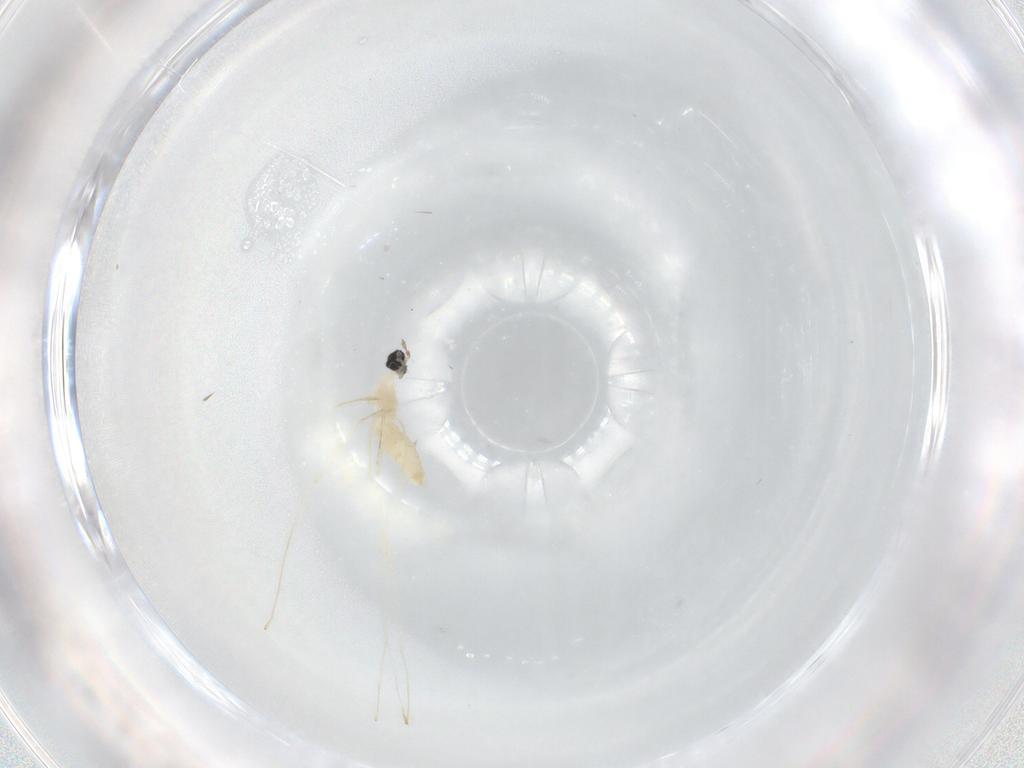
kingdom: Animalia
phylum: Arthropoda
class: Insecta
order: Diptera
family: Cecidomyiidae
